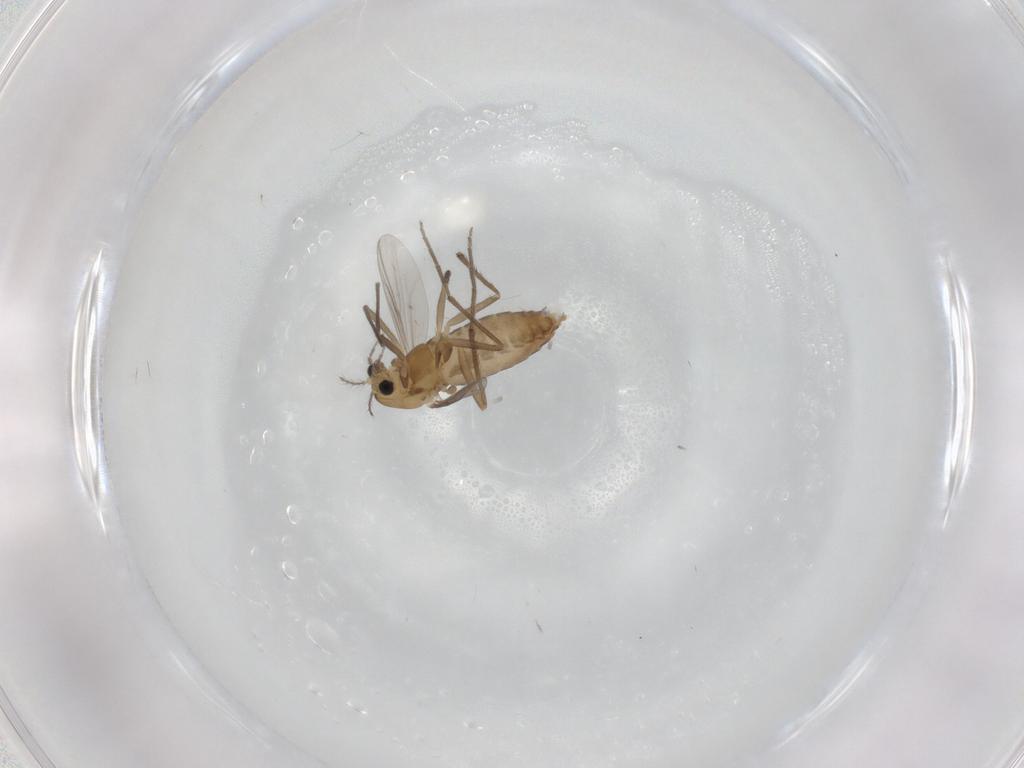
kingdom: Animalia
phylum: Arthropoda
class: Insecta
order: Diptera
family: Chironomidae
